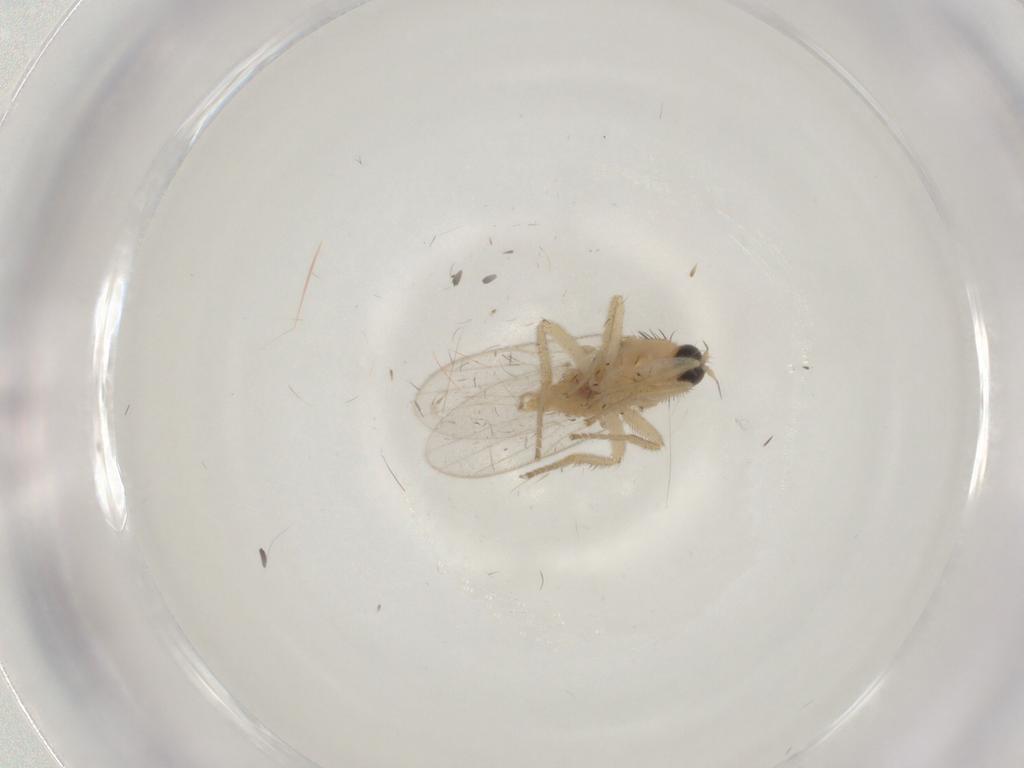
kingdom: Animalia
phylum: Arthropoda
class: Insecta
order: Diptera
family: Hybotidae
